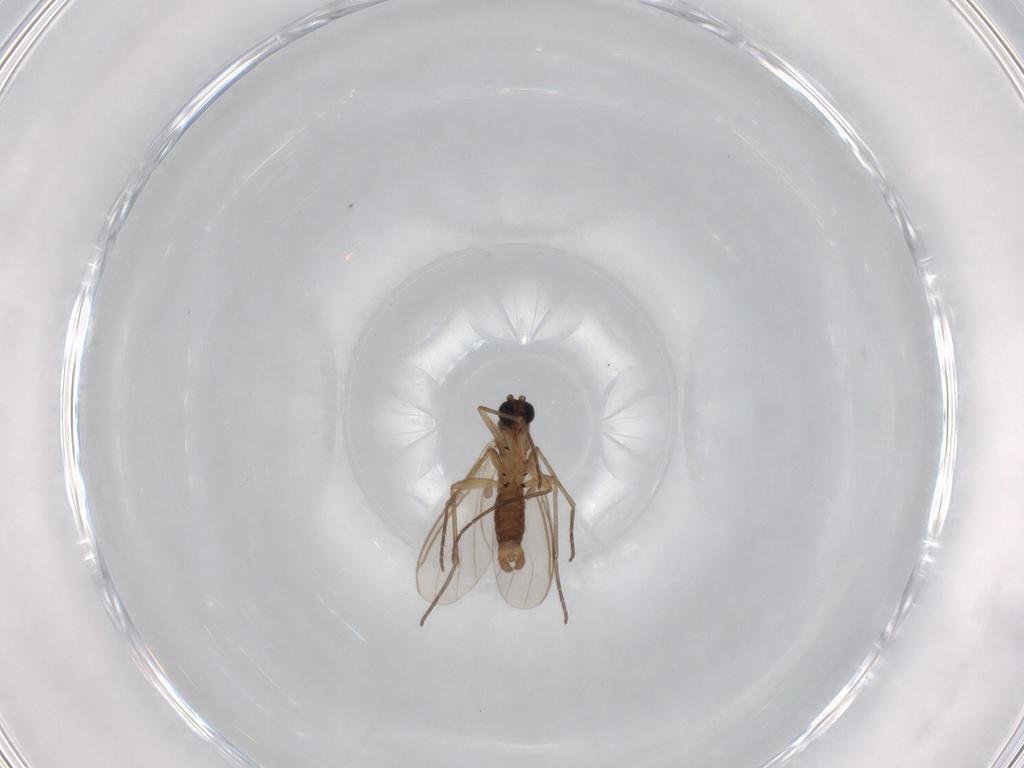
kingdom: Animalia
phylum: Arthropoda
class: Insecta
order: Diptera
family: Sciaridae
